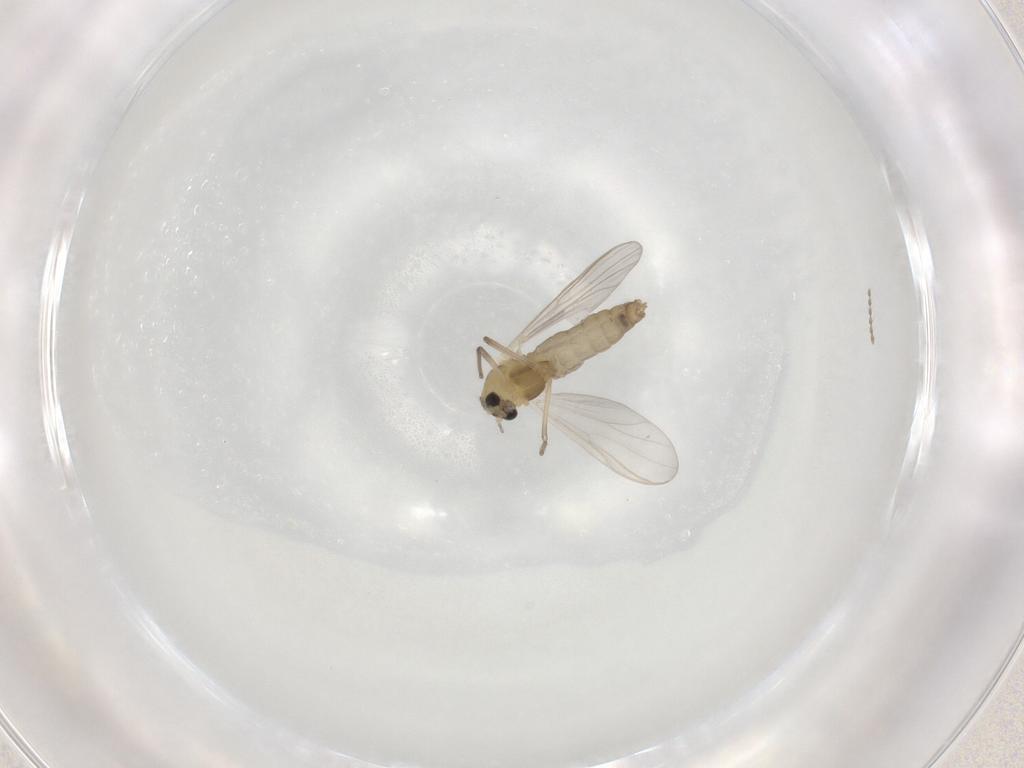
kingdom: Animalia
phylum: Arthropoda
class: Insecta
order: Diptera
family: Chironomidae
